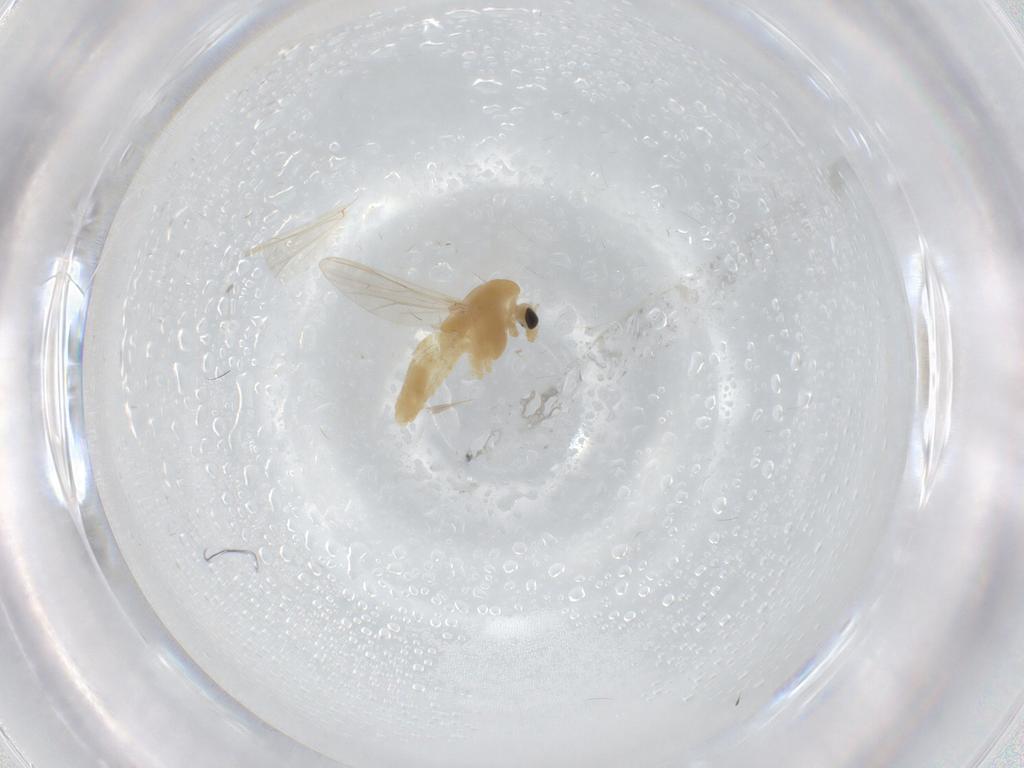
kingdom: Animalia
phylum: Arthropoda
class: Insecta
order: Diptera
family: Chironomidae
